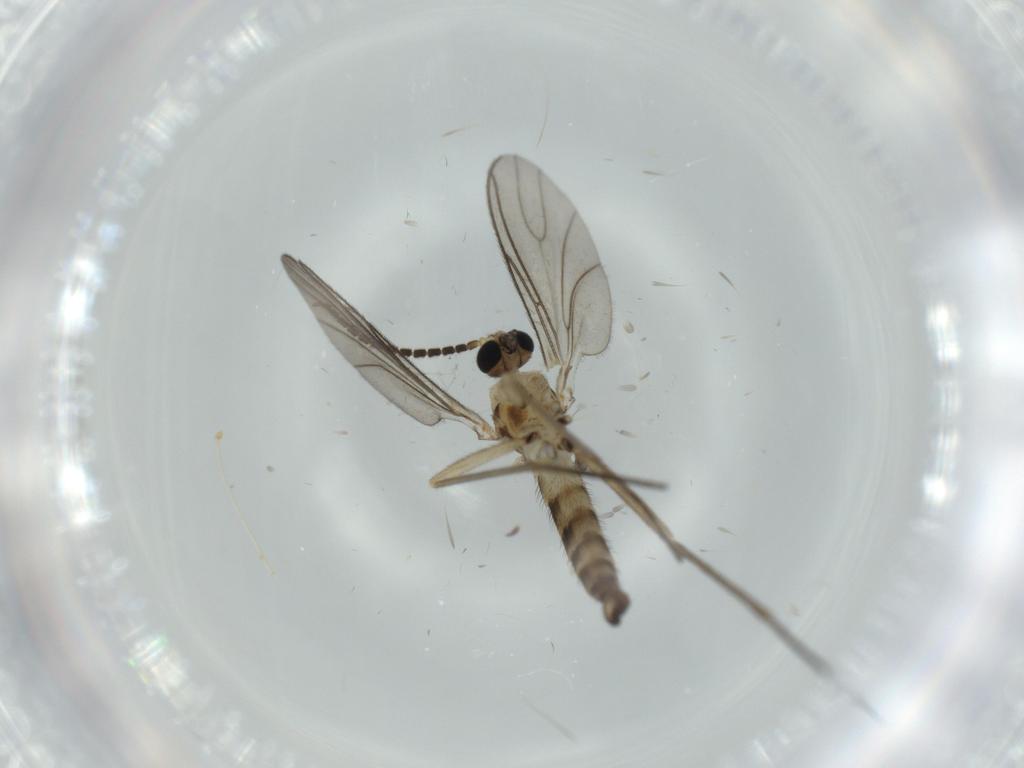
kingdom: Animalia
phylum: Arthropoda
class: Insecta
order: Diptera
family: Sciaridae
